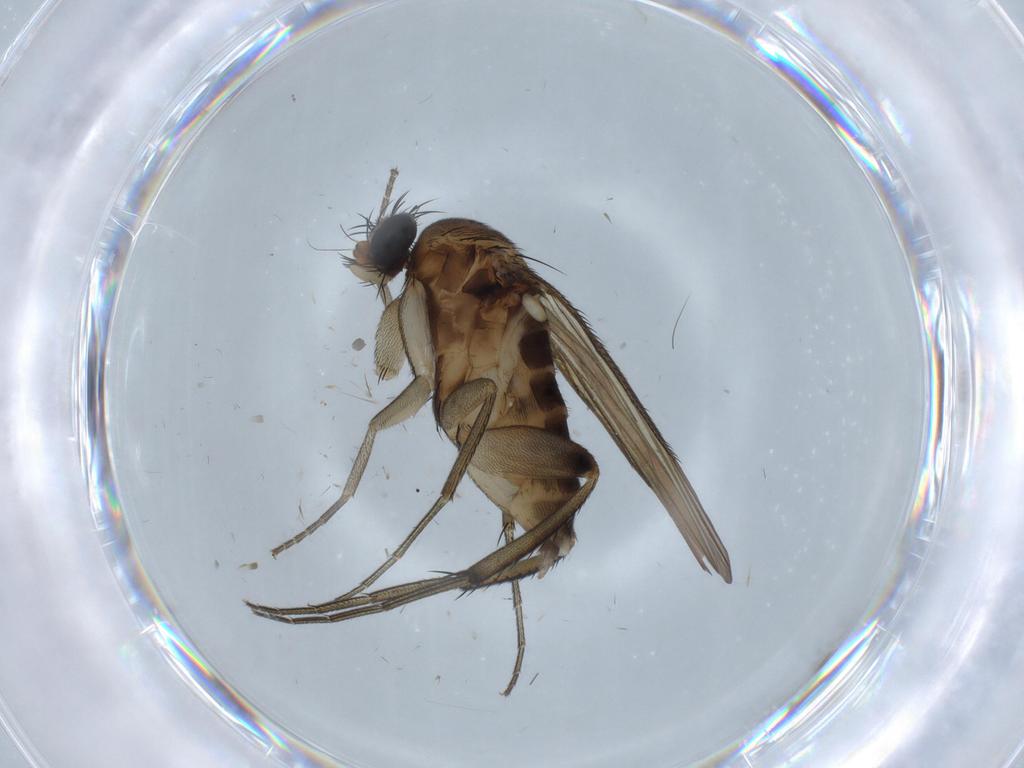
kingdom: Animalia
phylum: Arthropoda
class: Insecta
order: Diptera
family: Phoridae
